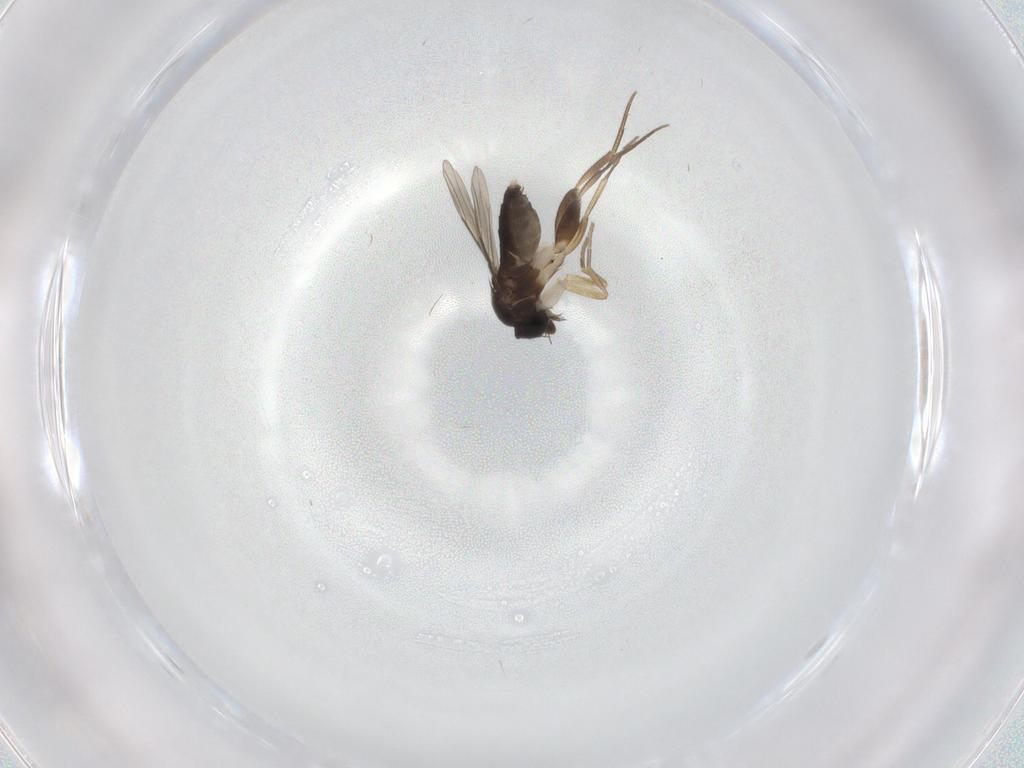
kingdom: Animalia
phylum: Arthropoda
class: Insecta
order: Diptera
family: Phoridae
